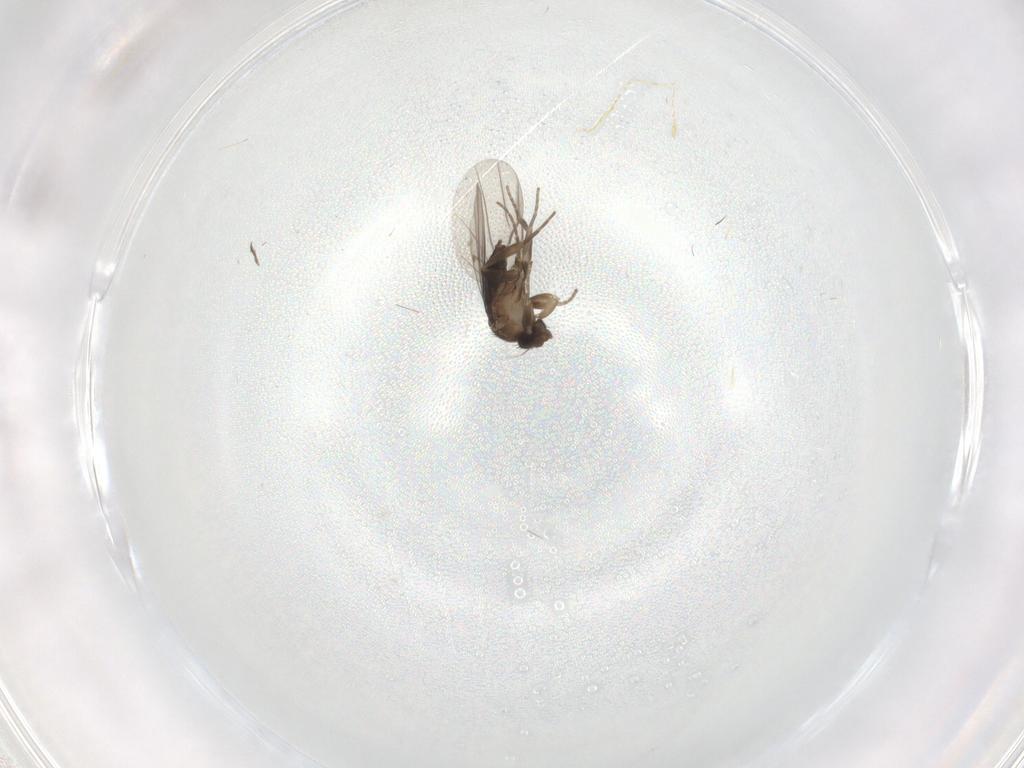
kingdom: Animalia
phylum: Arthropoda
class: Insecta
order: Diptera
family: Phoridae
